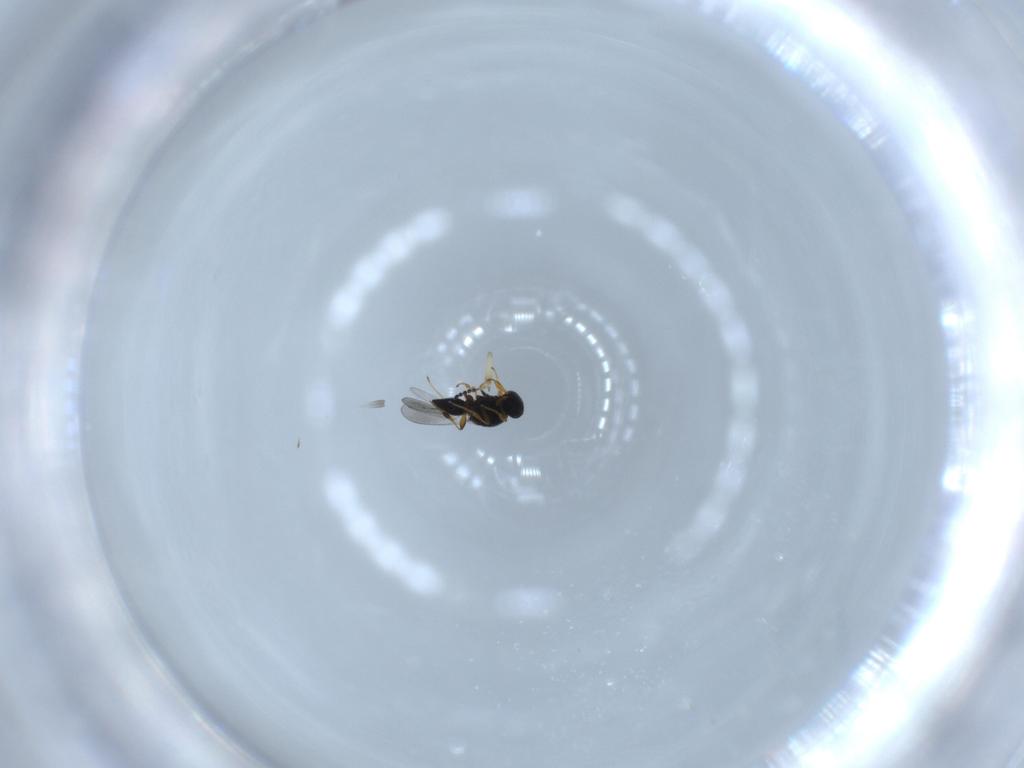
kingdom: Animalia
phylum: Arthropoda
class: Insecta
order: Hymenoptera
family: Platygastridae
